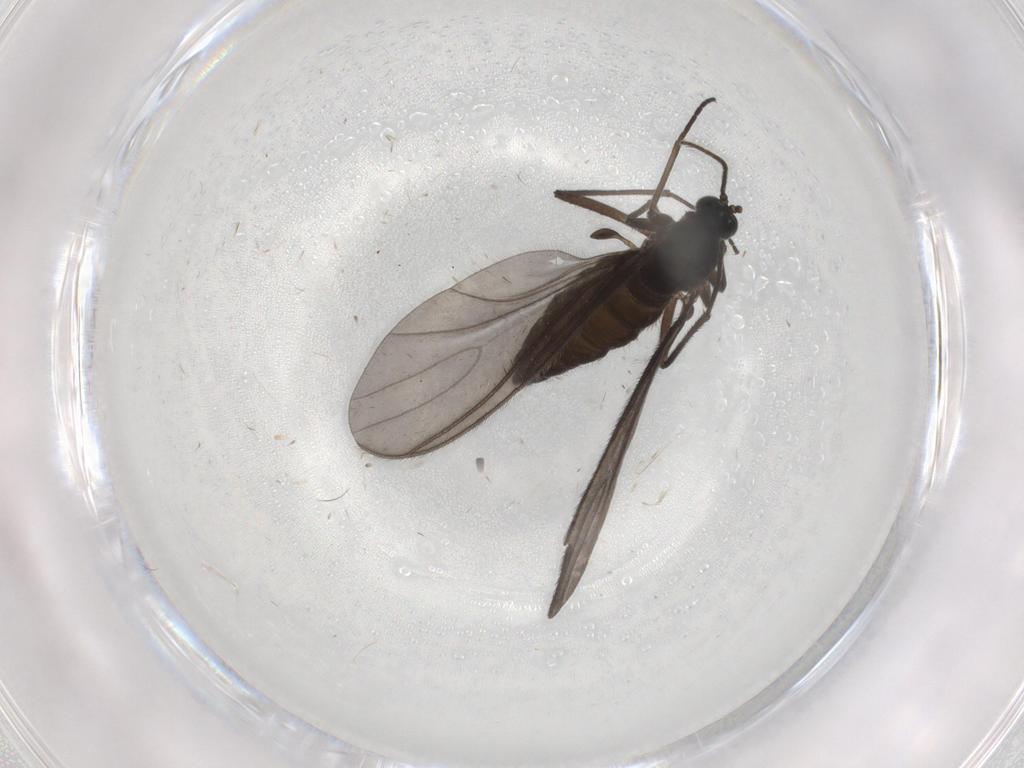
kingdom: Animalia
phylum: Arthropoda
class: Insecta
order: Diptera
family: Sciaridae
